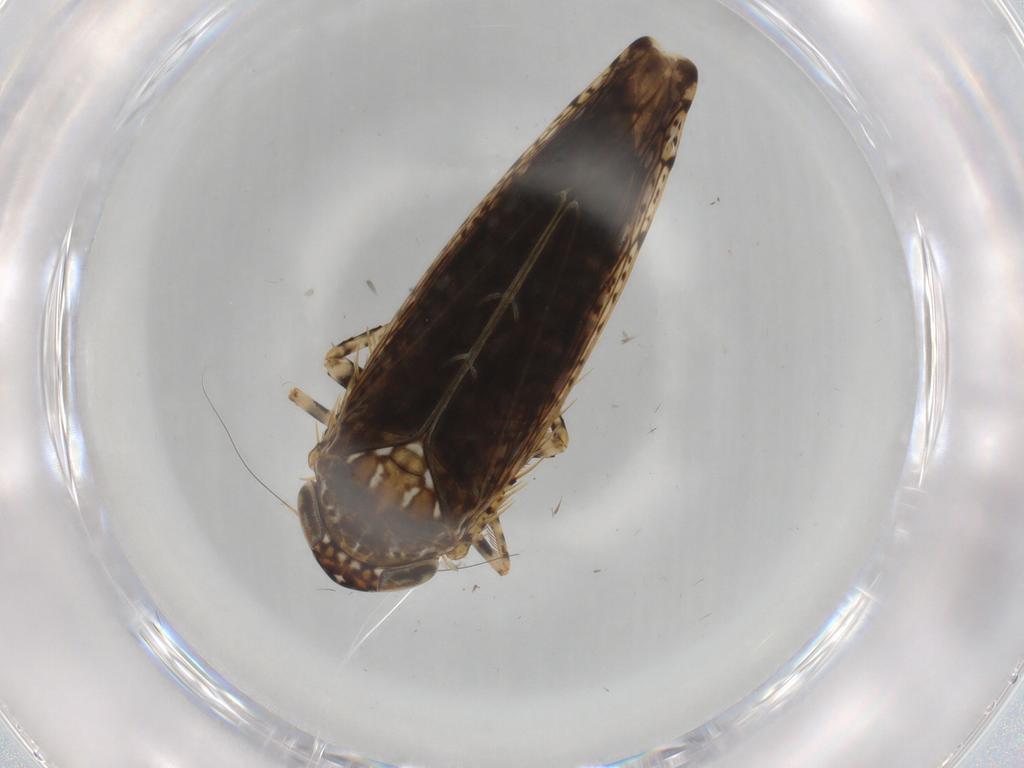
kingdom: Animalia
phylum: Arthropoda
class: Insecta
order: Hemiptera
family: Cicadellidae
